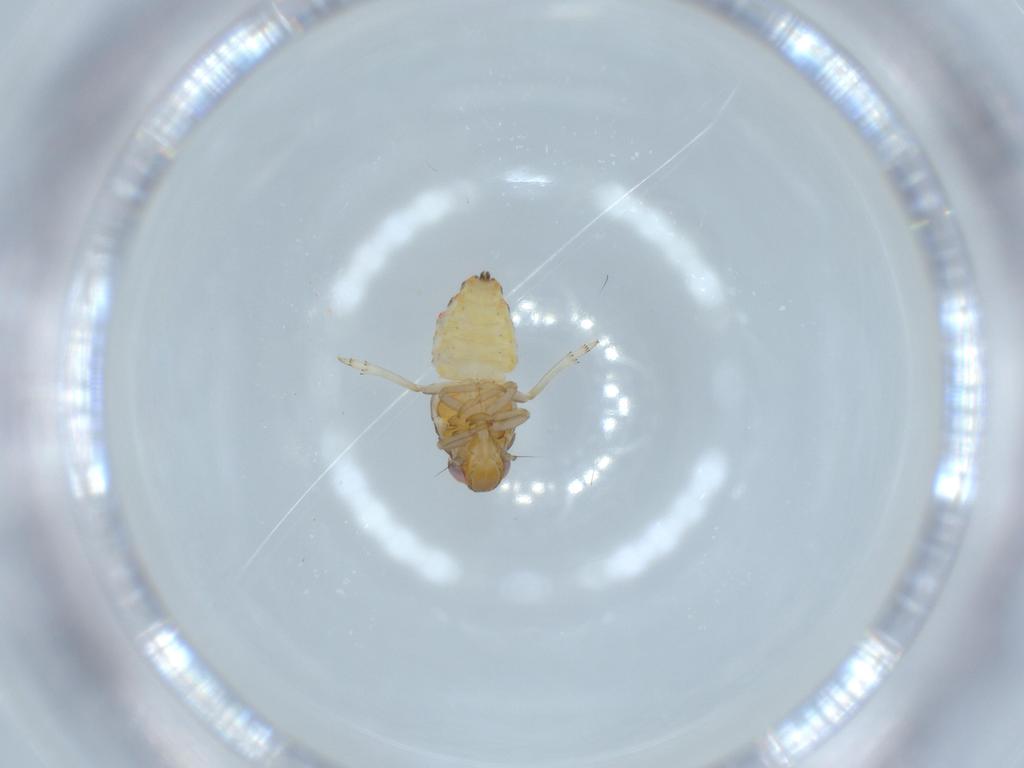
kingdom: Animalia
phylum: Arthropoda
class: Insecta
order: Hemiptera
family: Issidae
